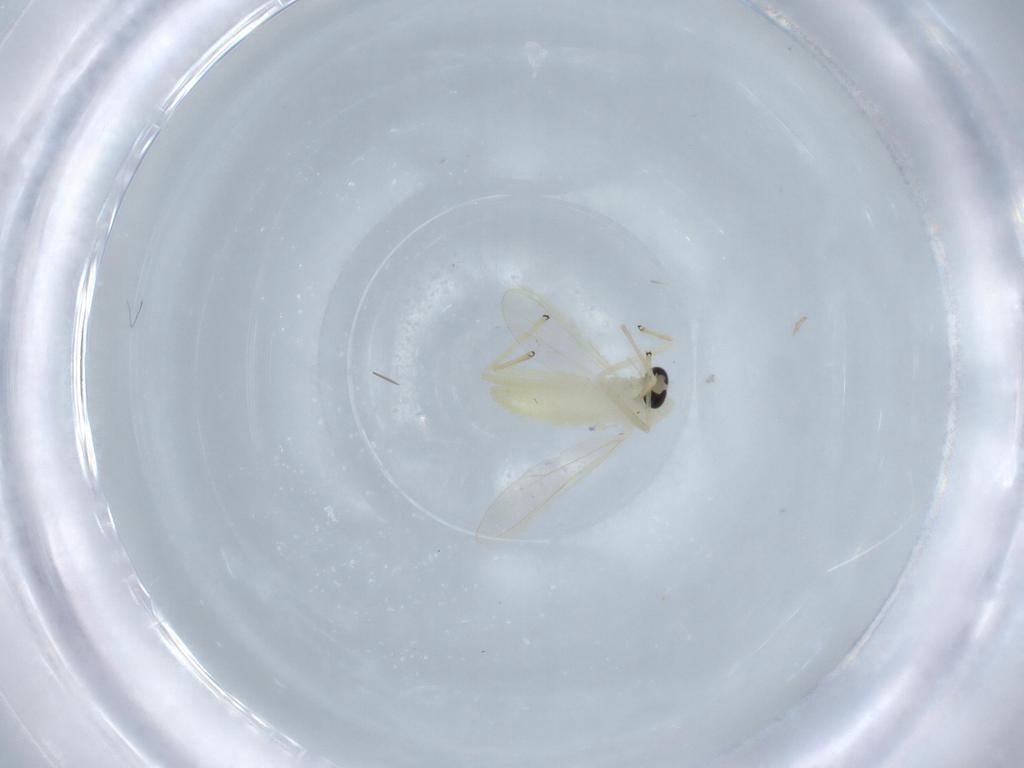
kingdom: Animalia
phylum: Arthropoda
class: Insecta
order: Diptera
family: Chironomidae
